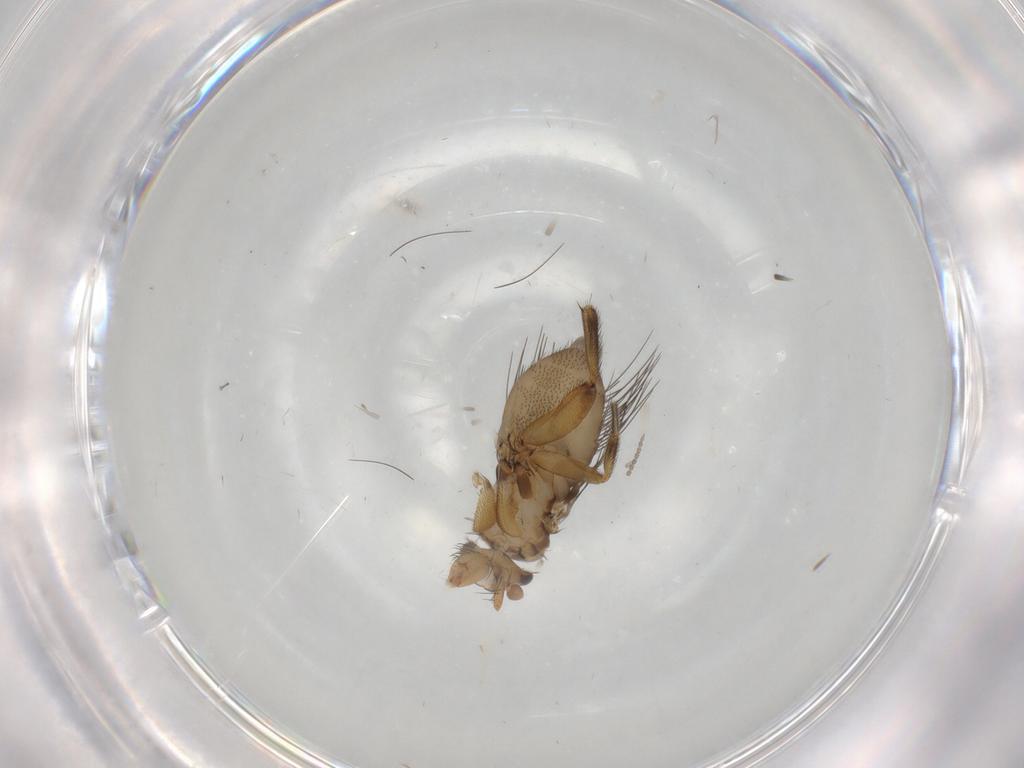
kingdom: Animalia
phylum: Arthropoda
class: Insecta
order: Diptera
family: Phoridae
